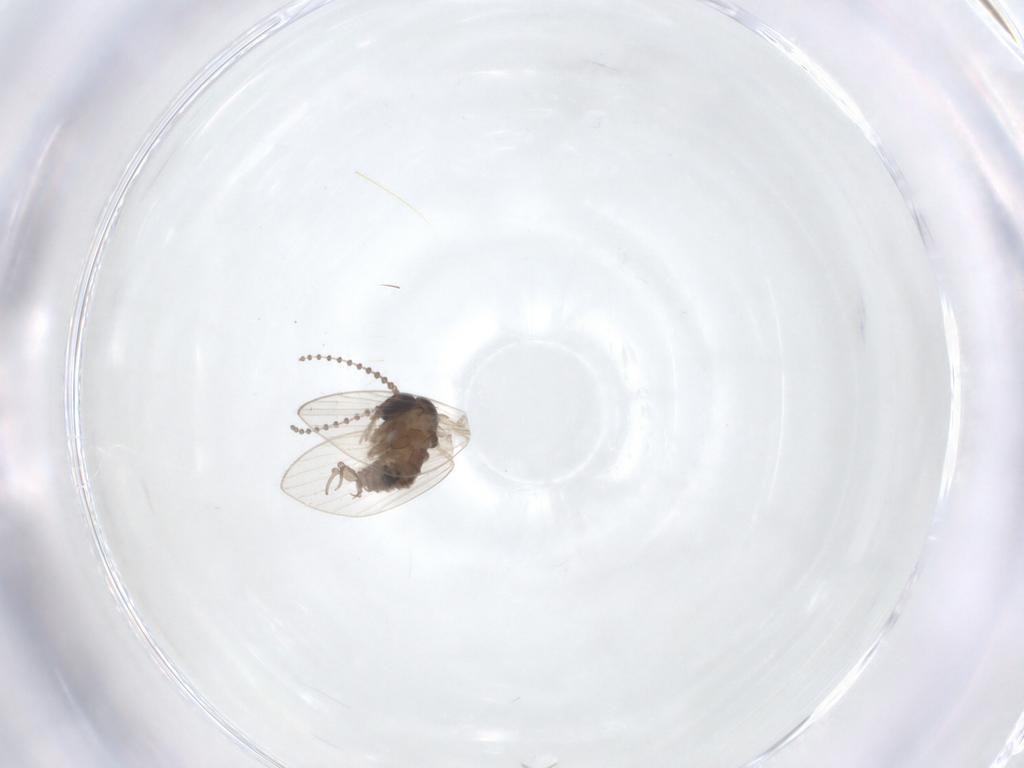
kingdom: Animalia
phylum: Arthropoda
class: Insecta
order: Diptera
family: Psychodidae
